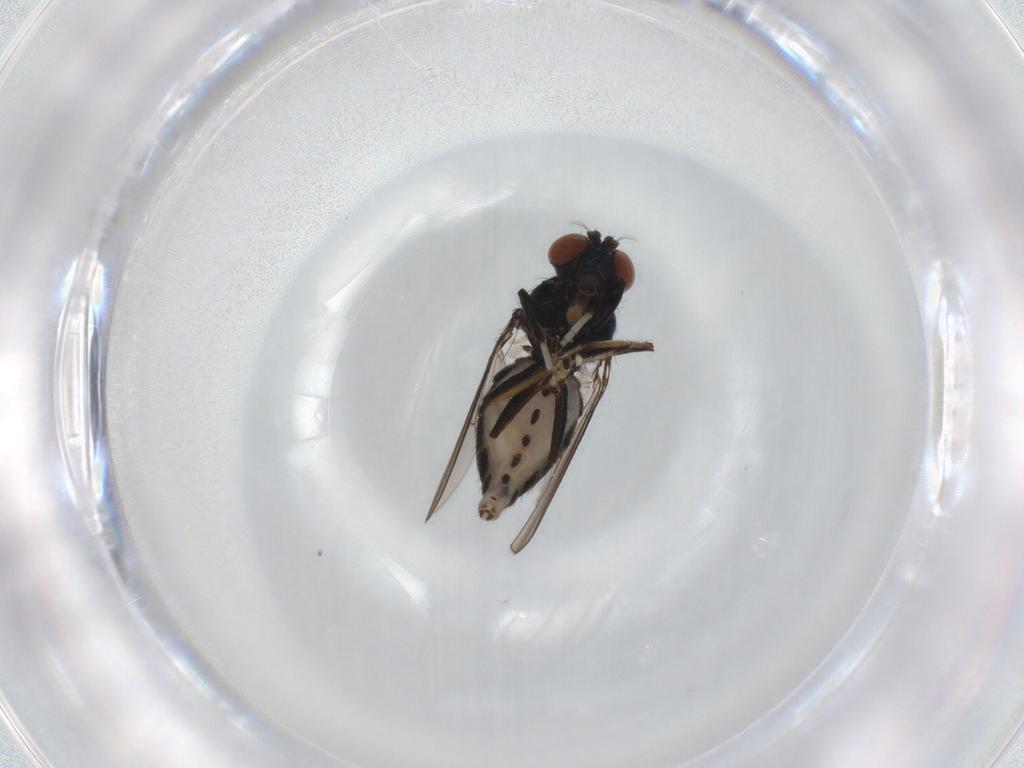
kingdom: Animalia
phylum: Arthropoda
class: Insecta
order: Diptera
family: Ephydridae
